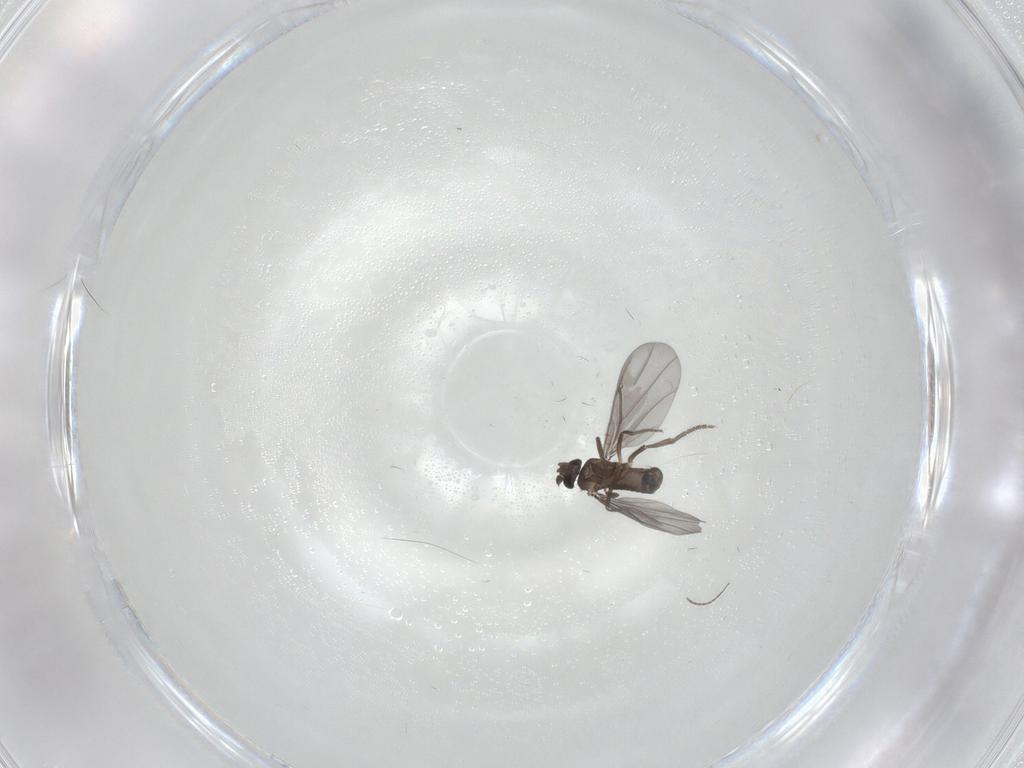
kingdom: Animalia
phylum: Arthropoda
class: Insecta
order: Diptera
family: Phoridae
